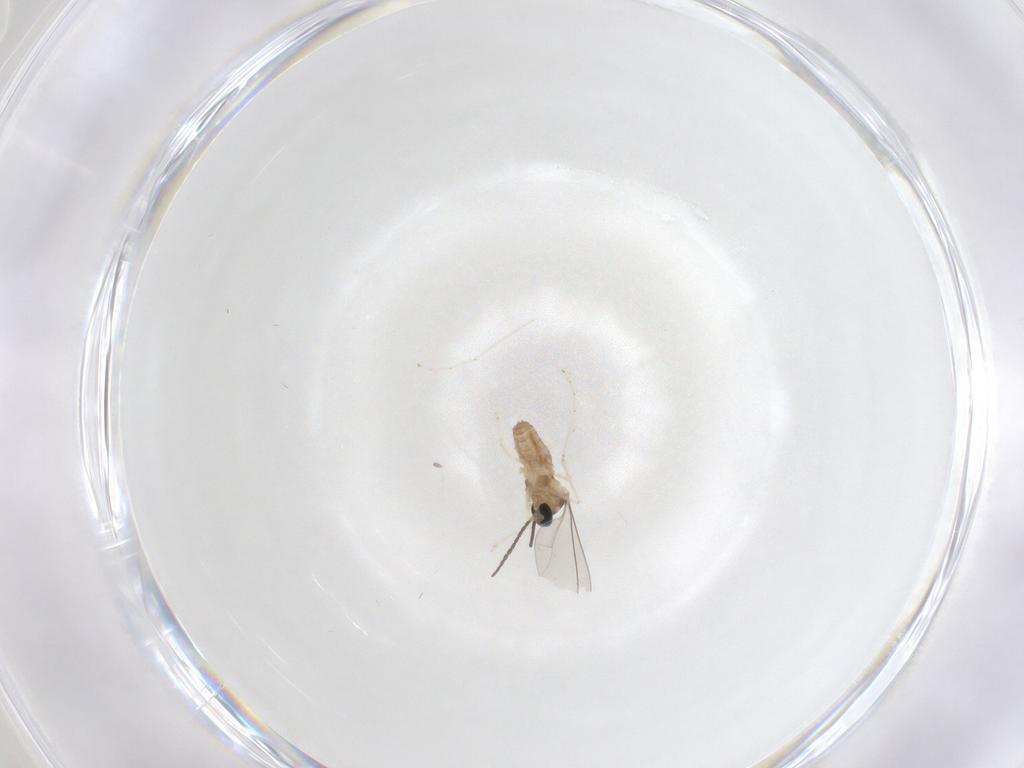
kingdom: Animalia
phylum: Arthropoda
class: Insecta
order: Diptera
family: Cecidomyiidae
